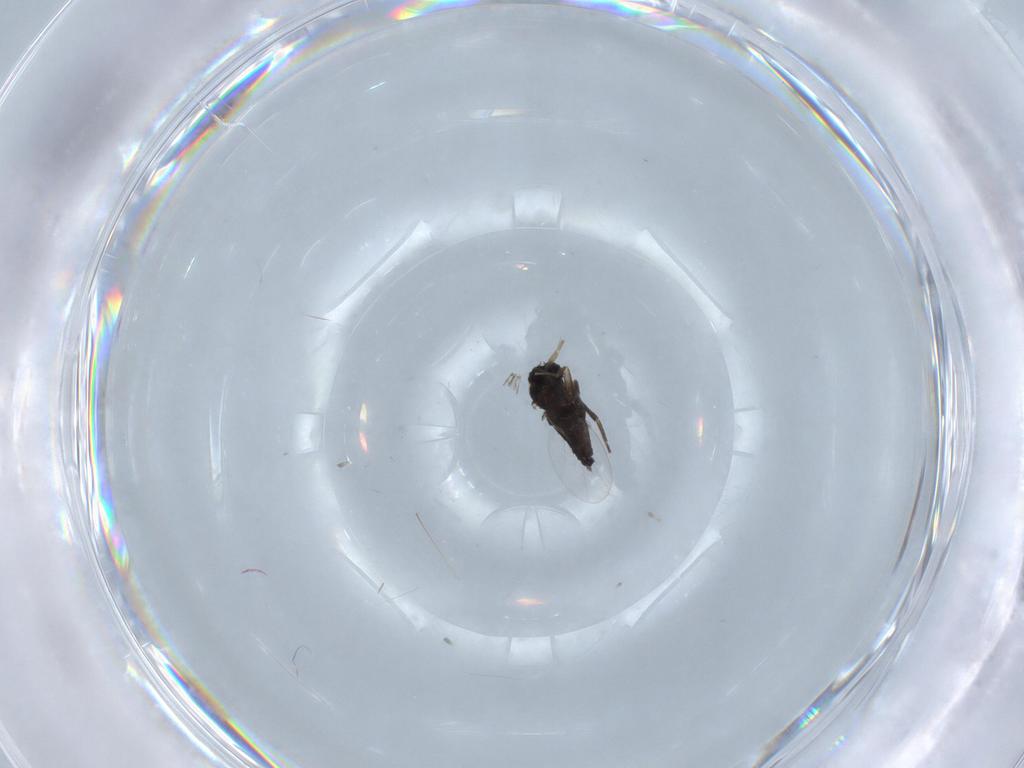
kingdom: Animalia
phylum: Arthropoda
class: Insecta
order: Diptera
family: Phoridae
